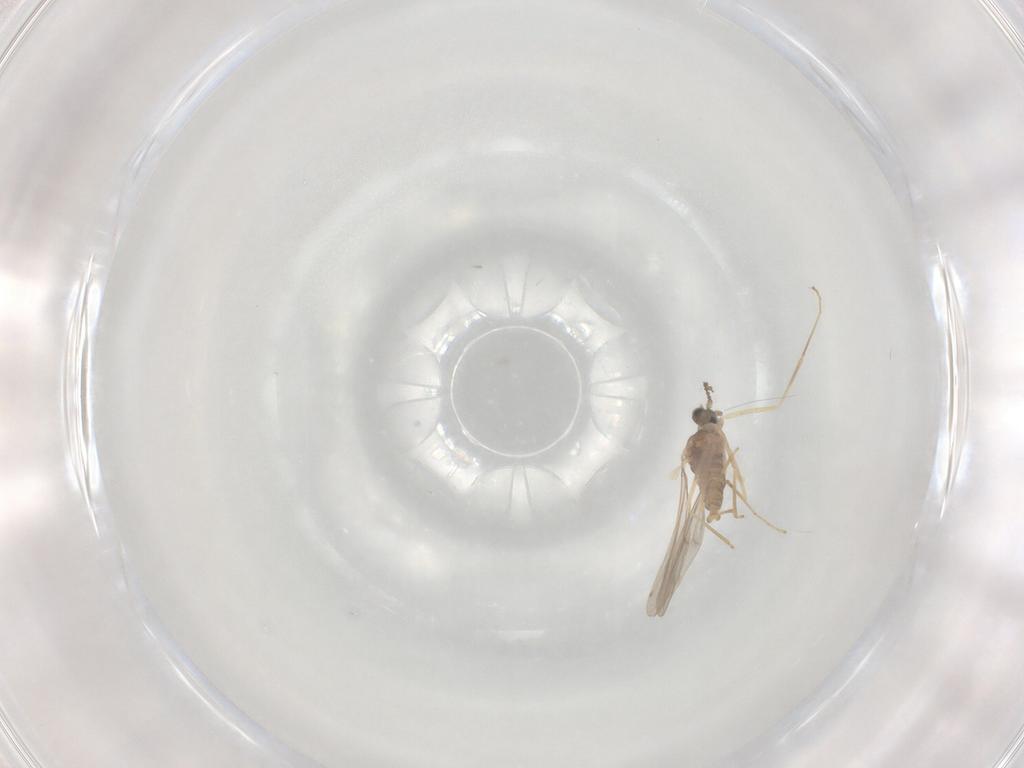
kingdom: Animalia
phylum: Arthropoda
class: Insecta
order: Diptera
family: Cecidomyiidae
